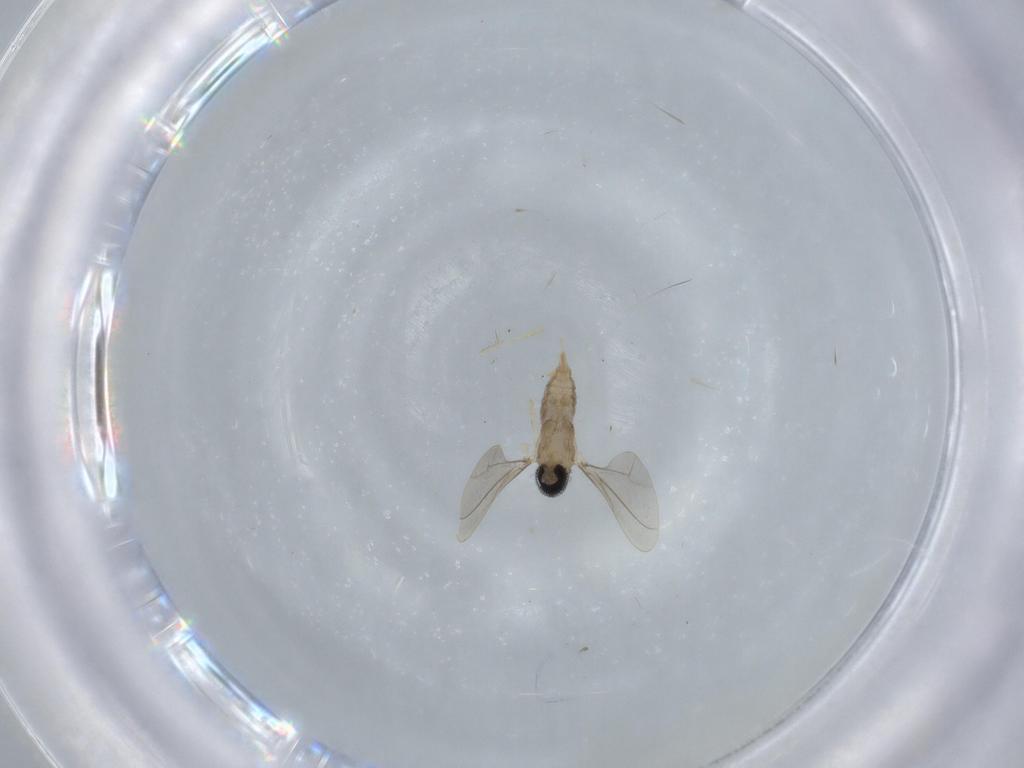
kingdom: Animalia
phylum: Arthropoda
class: Insecta
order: Diptera
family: Cecidomyiidae
